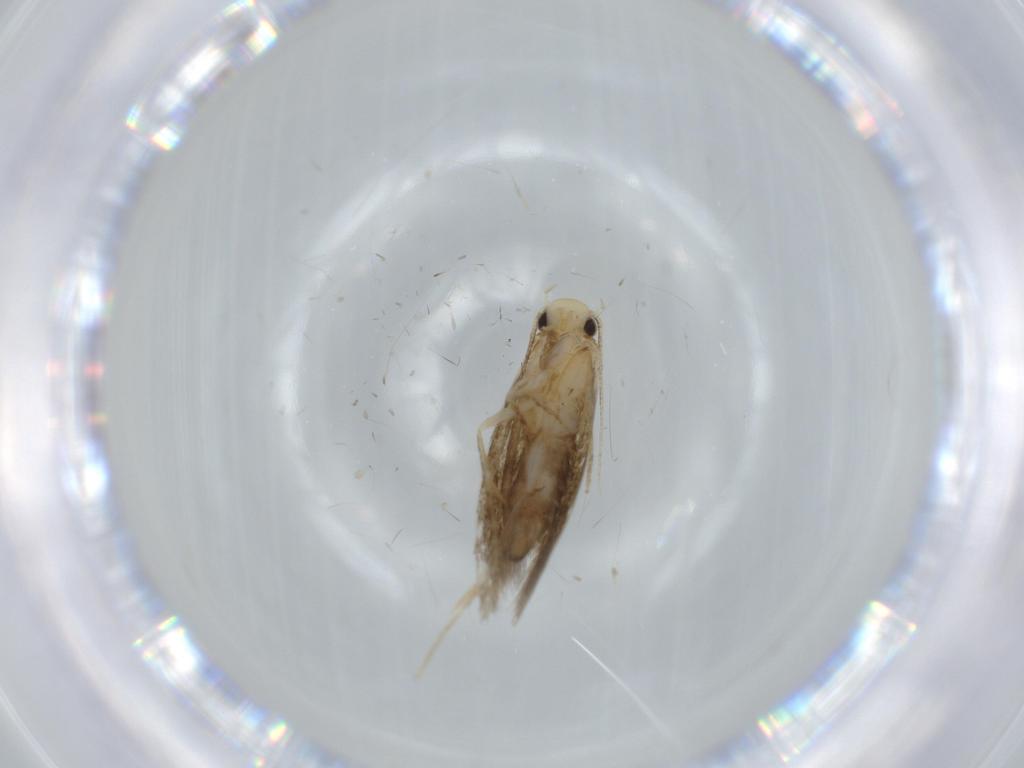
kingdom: Animalia
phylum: Arthropoda
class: Insecta
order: Lepidoptera
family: Tineidae
